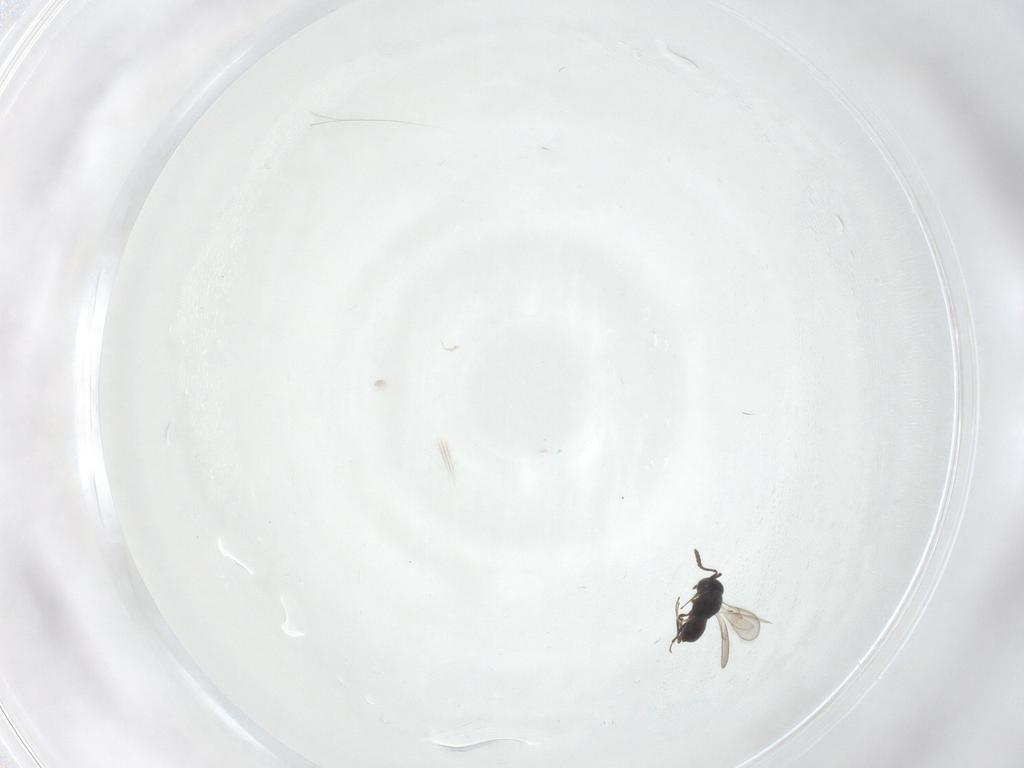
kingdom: Animalia
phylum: Arthropoda
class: Insecta
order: Hymenoptera
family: Scelionidae
